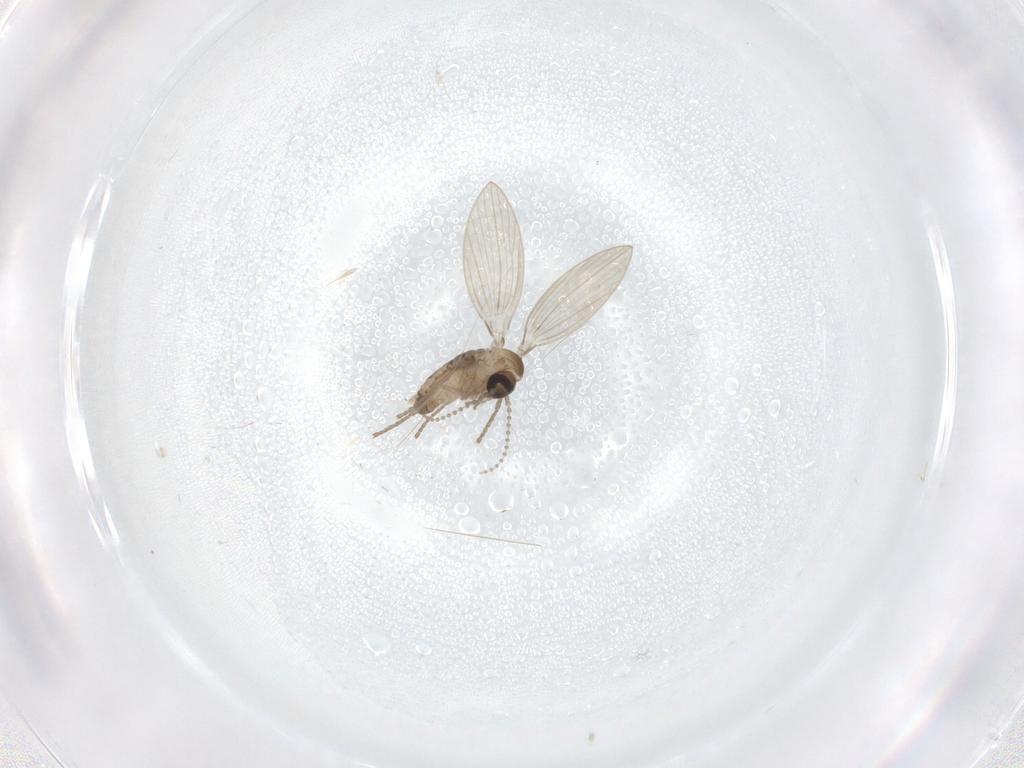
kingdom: Animalia
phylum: Arthropoda
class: Insecta
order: Diptera
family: Psychodidae
